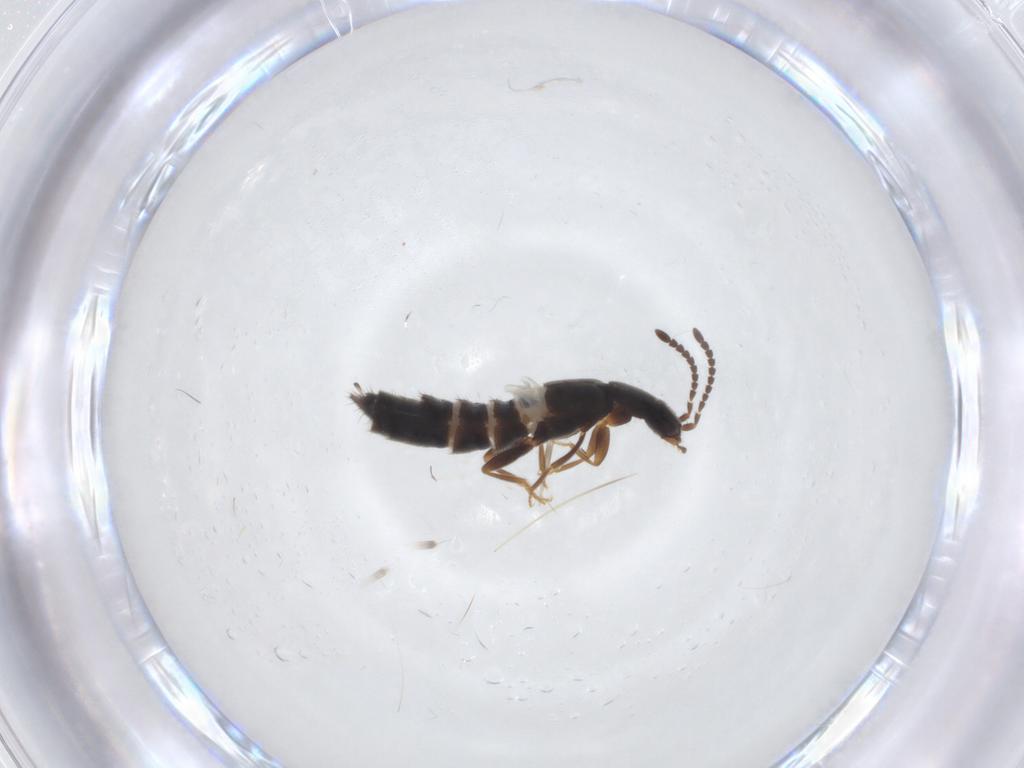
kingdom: Animalia
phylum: Arthropoda
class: Insecta
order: Coleoptera
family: Staphylinidae
